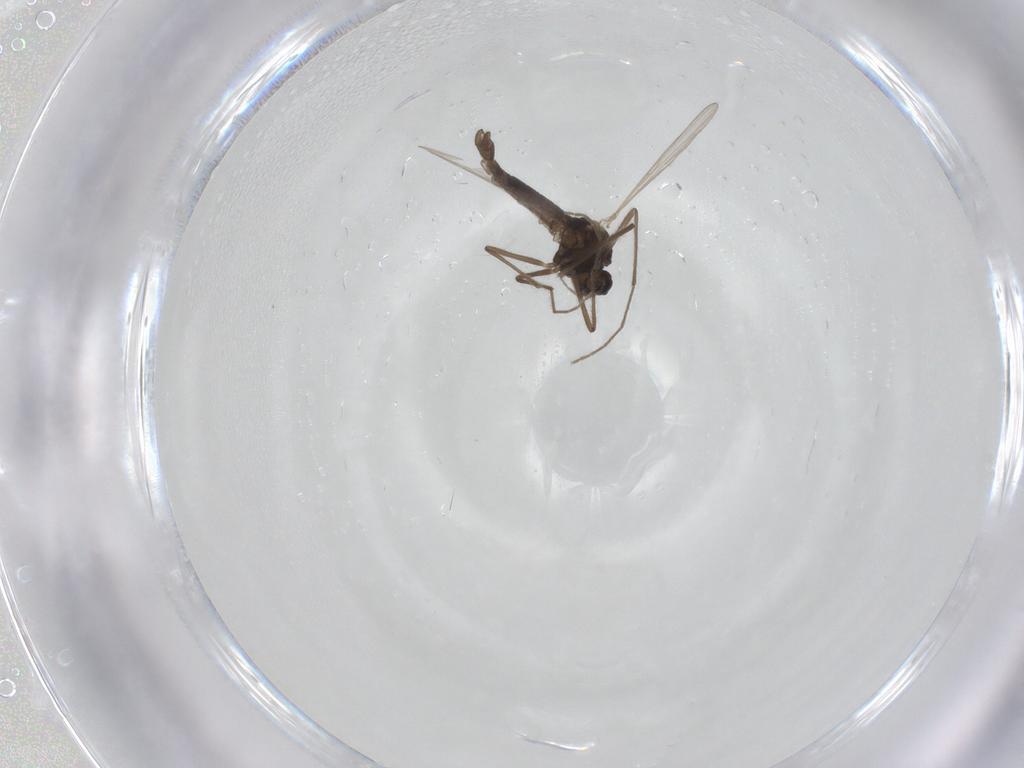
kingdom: Animalia
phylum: Arthropoda
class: Insecta
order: Diptera
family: Chironomidae
